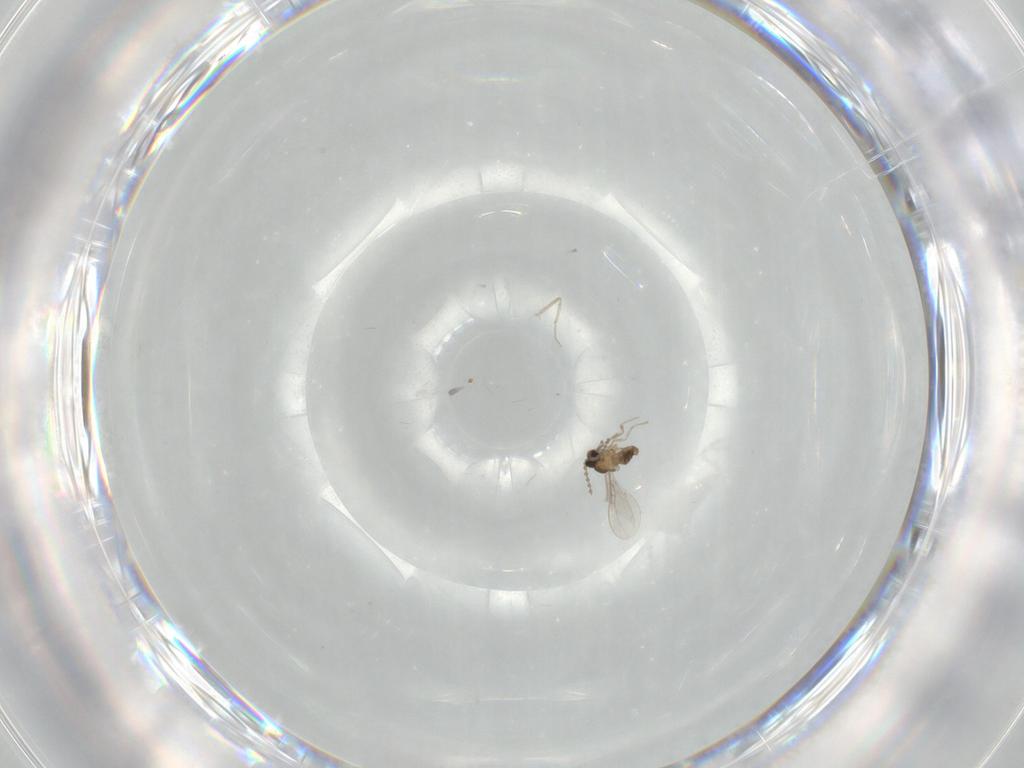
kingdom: Animalia
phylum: Arthropoda
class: Insecta
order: Diptera
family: Cecidomyiidae
